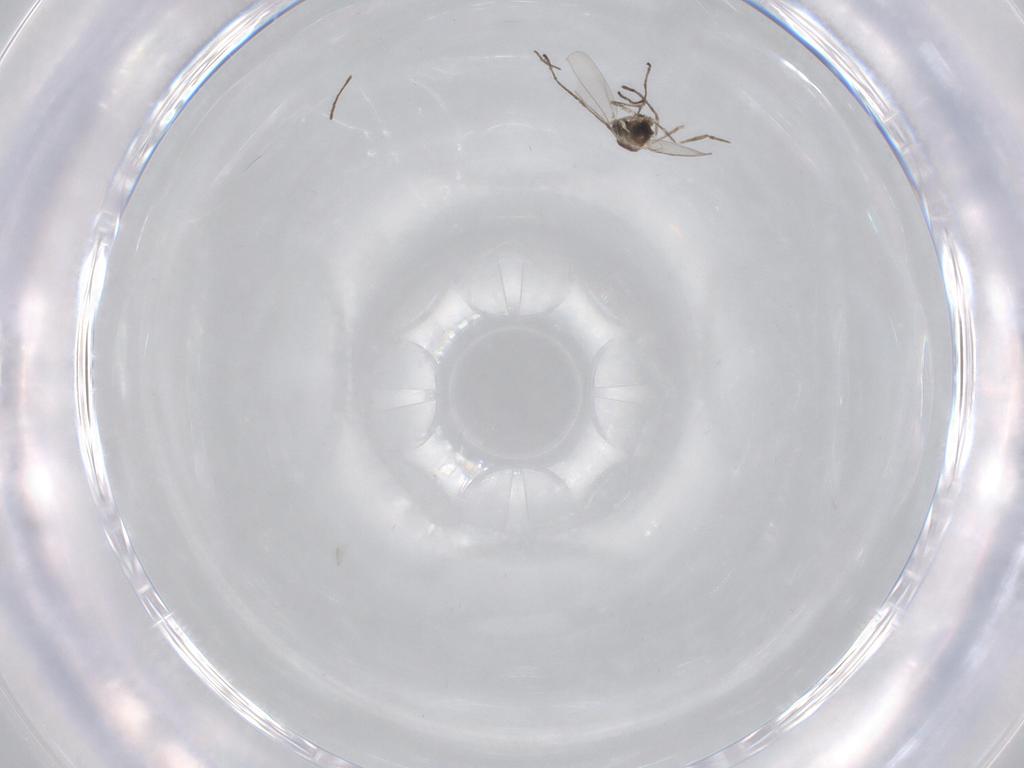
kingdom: Animalia
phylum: Arthropoda
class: Insecta
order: Diptera
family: Cecidomyiidae
